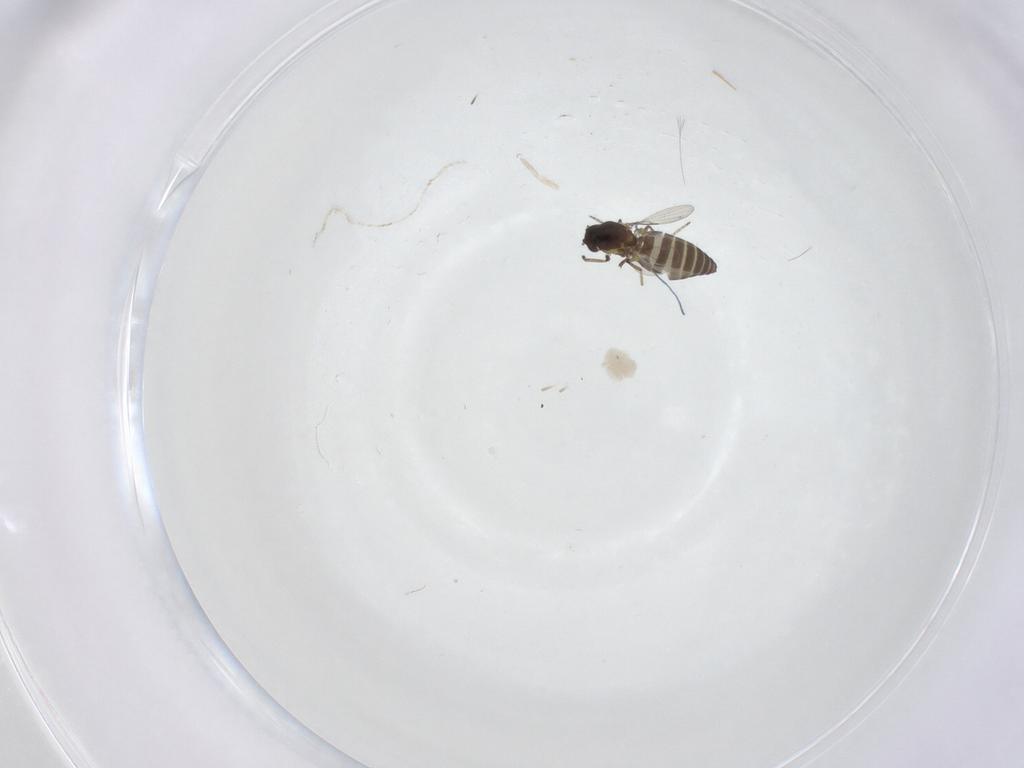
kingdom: Animalia
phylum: Arthropoda
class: Insecta
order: Diptera
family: Ceratopogonidae
